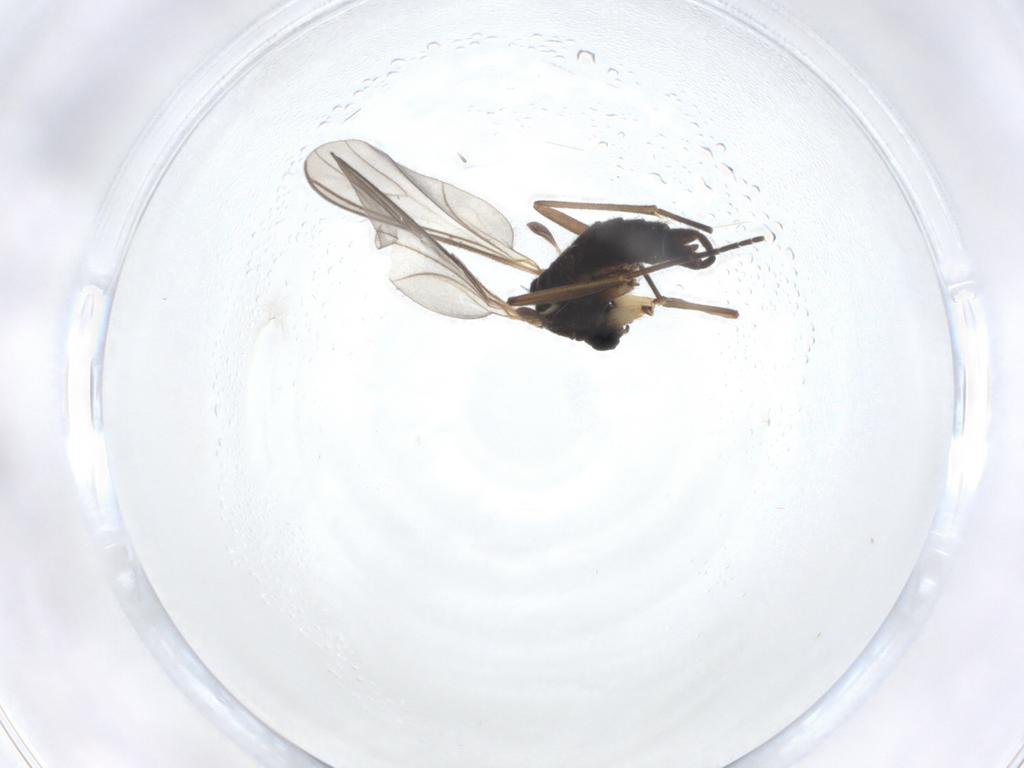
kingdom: Animalia
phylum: Arthropoda
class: Insecta
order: Diptera
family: Sciaridae
